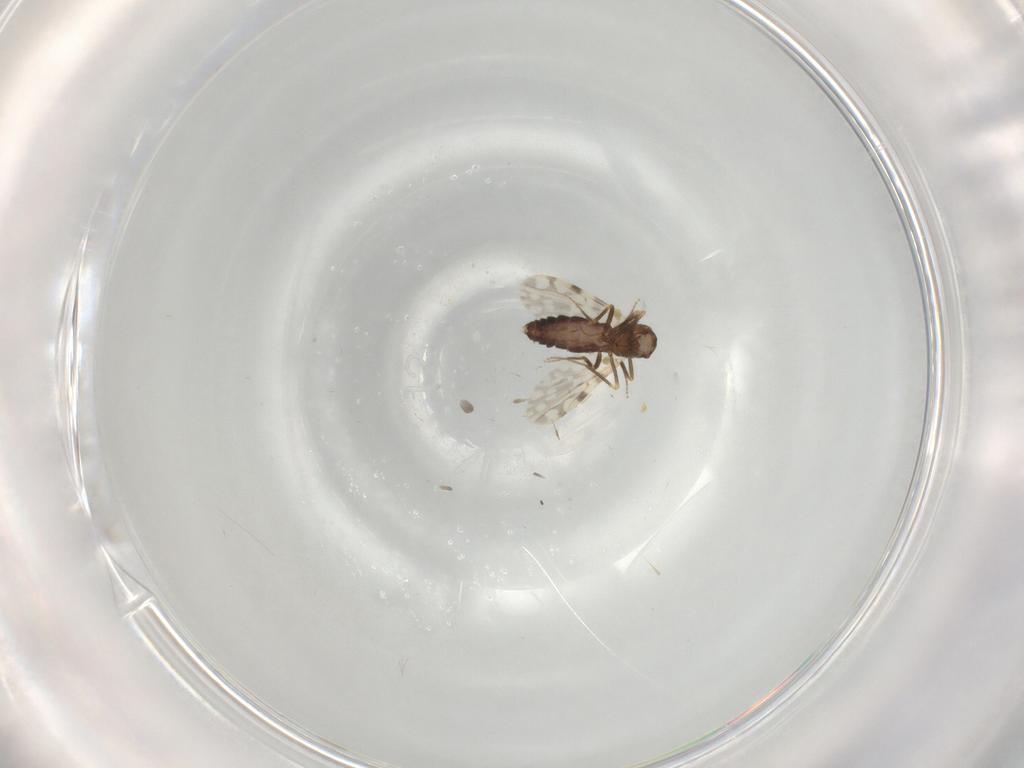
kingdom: Animalia
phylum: Arthropoda
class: Insecta
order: Diptera
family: Ceratopogonidae
